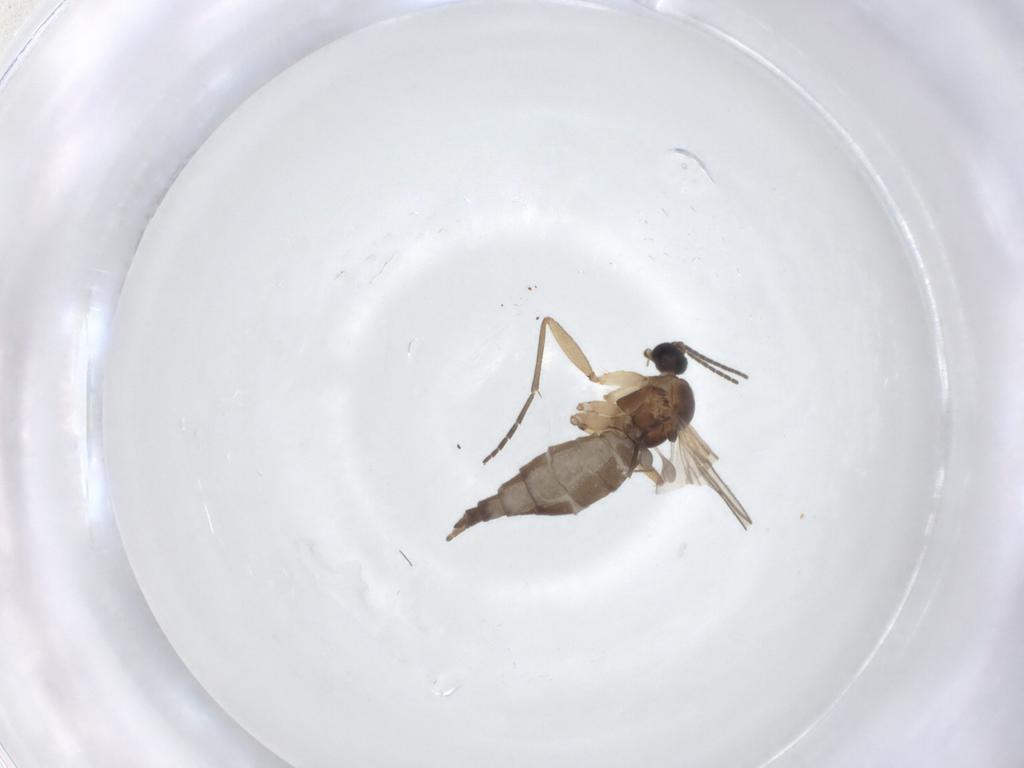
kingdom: Animalia
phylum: Arthropoda
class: Insecta
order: Diptera
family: Sciaridae
